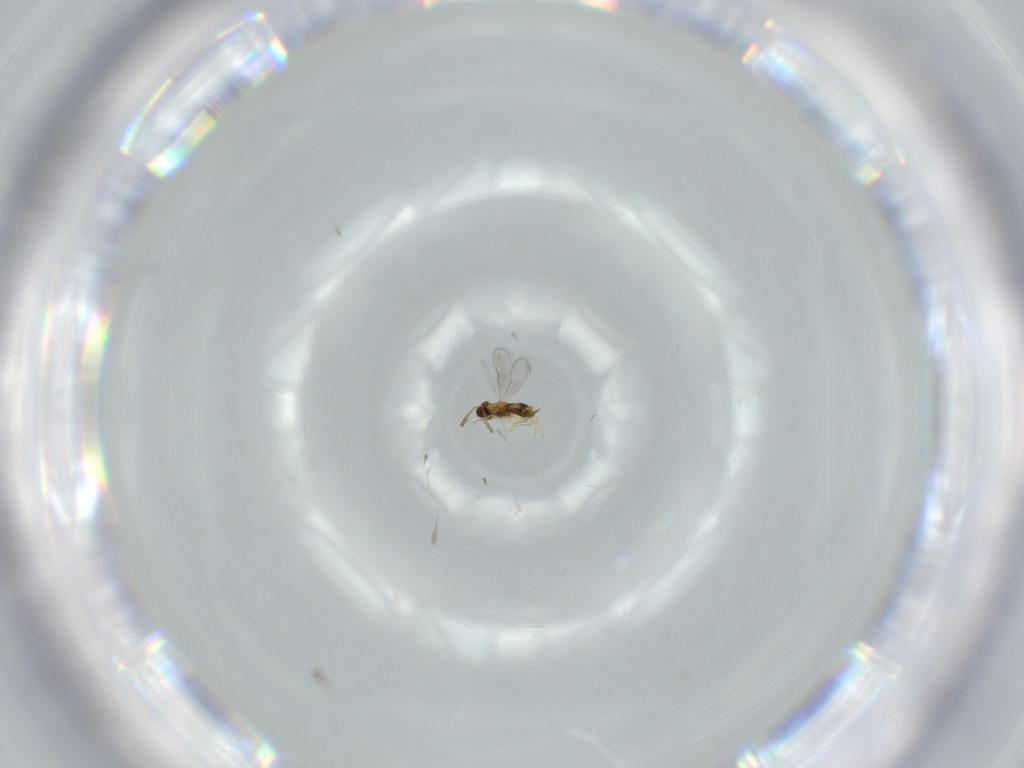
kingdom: Animalia
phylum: Arthropoda
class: Insecta
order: Hymenoptera
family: Aphelinidae
